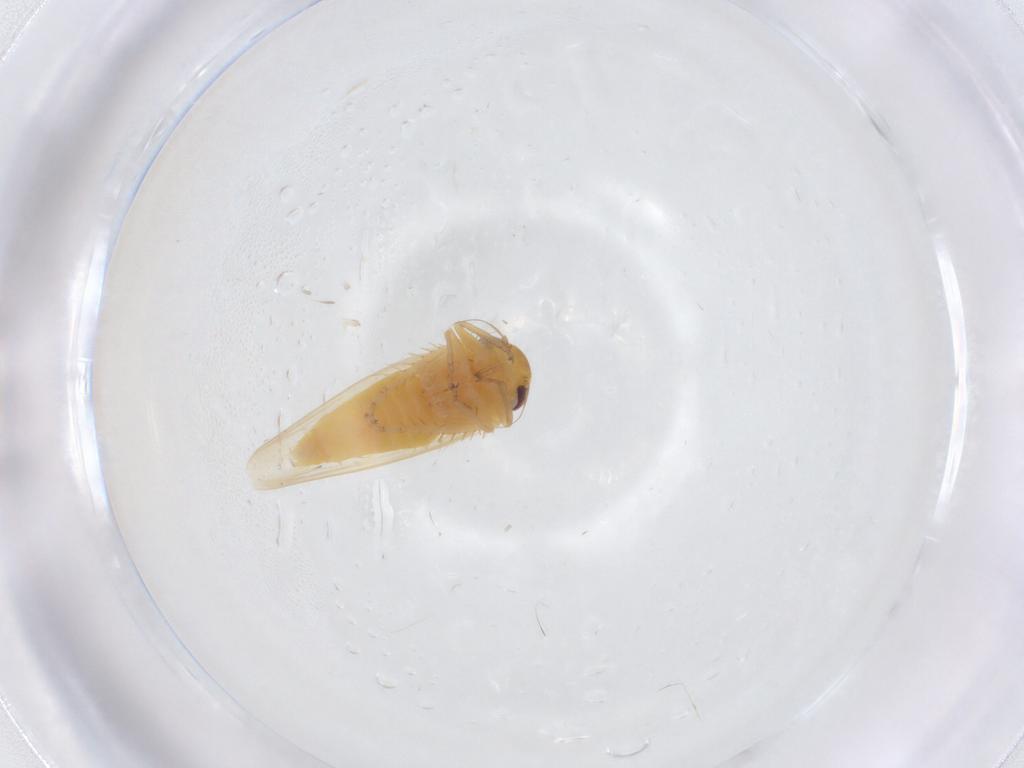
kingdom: Animalia
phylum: Arthropoda
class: Insecta
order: Hemiptera
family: Cicadellidae
